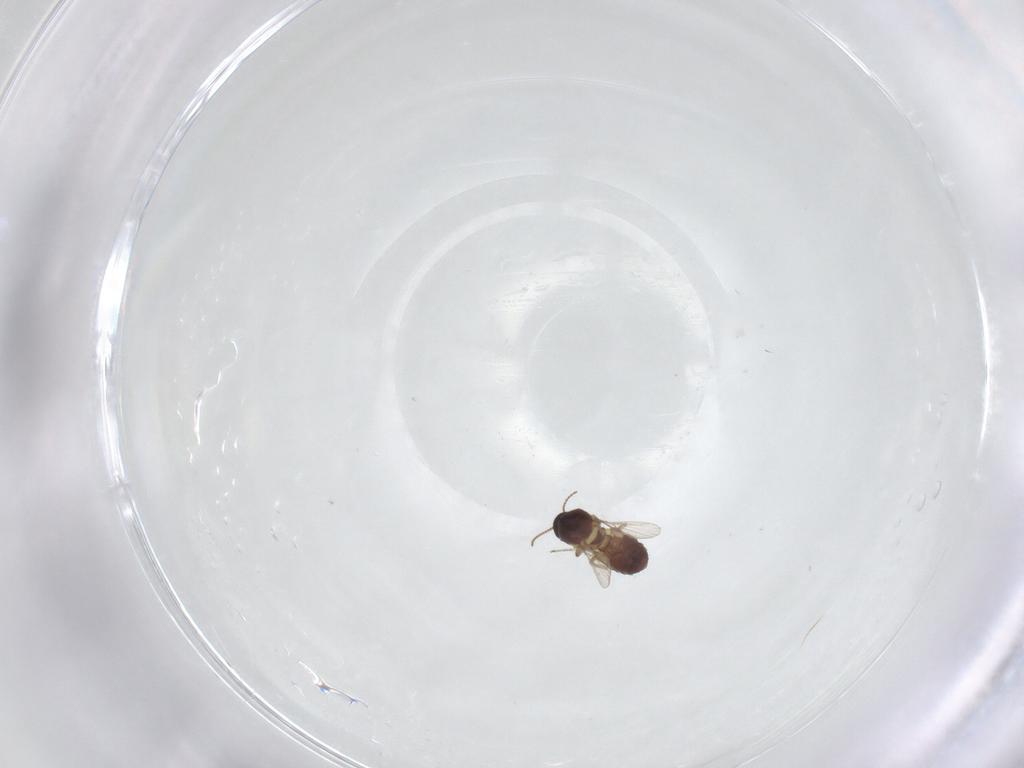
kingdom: Animalia
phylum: Arthropoda
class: Insecta
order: Diptera
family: Ceratopogonidae
